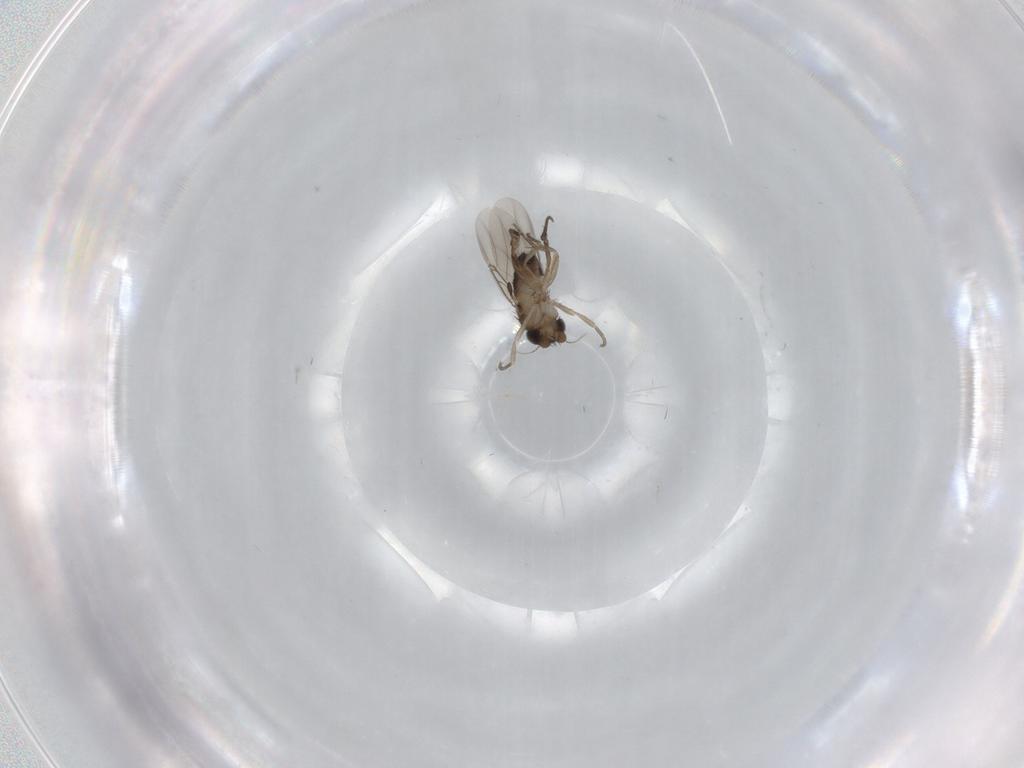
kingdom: Animalia
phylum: Arthropoda
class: Insecta
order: Diptera
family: Phoridae
